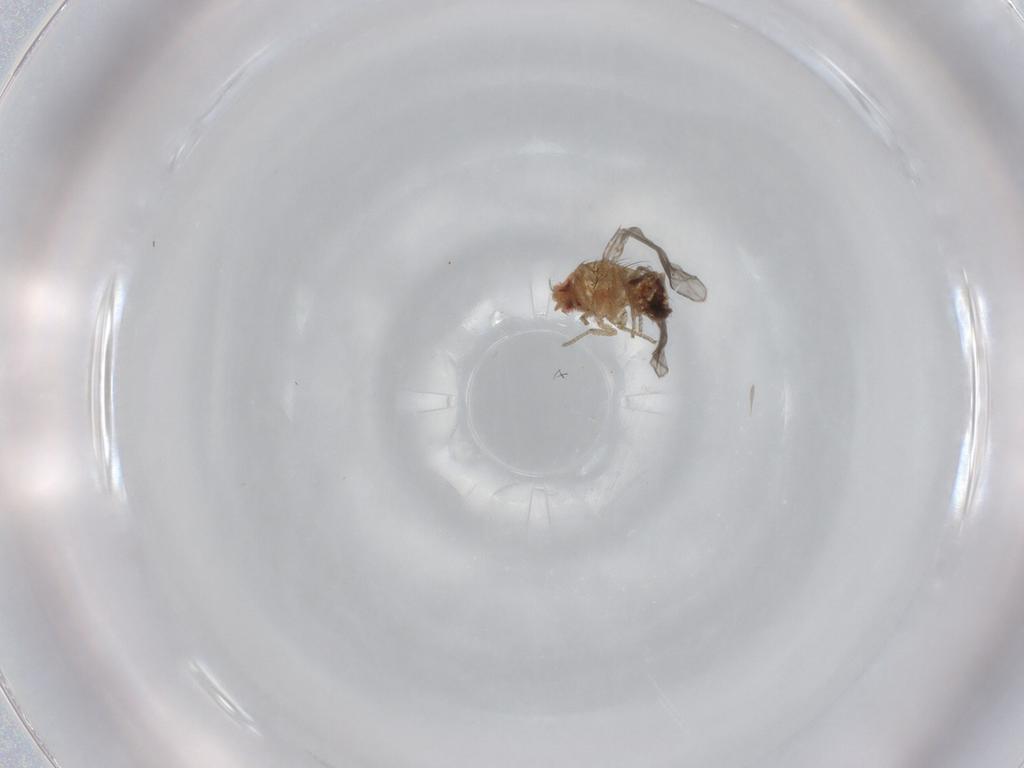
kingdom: Animalia
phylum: Arthropoda
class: Insecta
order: Diptera
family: Drosophilidae
